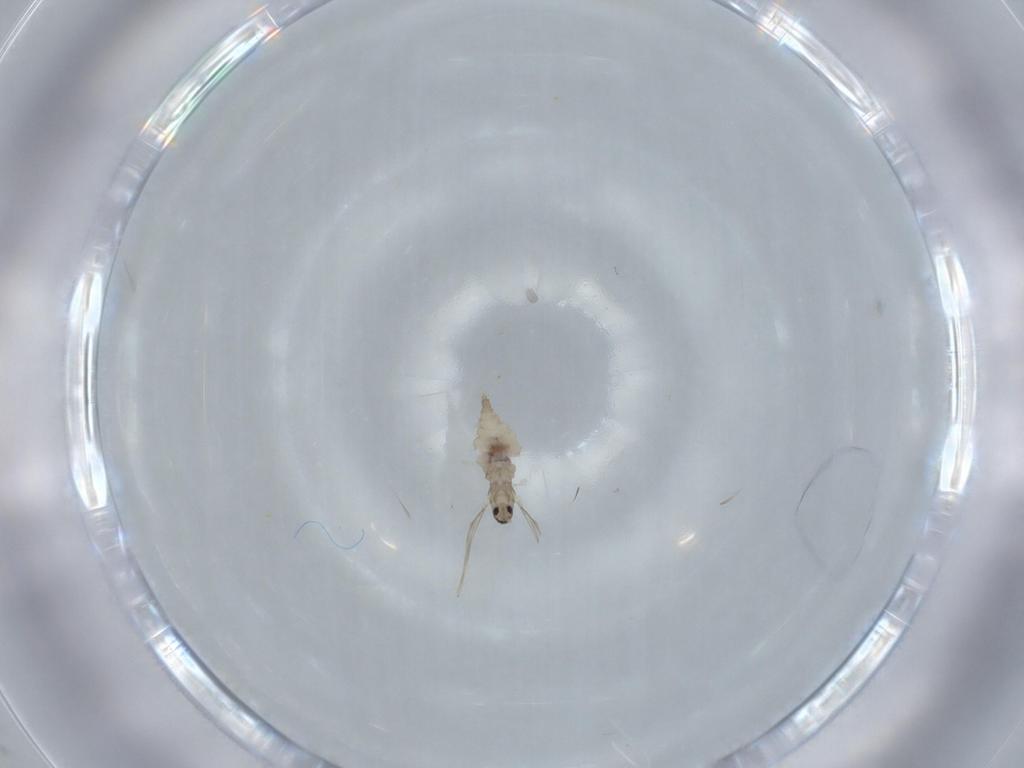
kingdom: Animalia
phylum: Arthropoda
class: Insecta
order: Diptera
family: Cecidomyiidae
